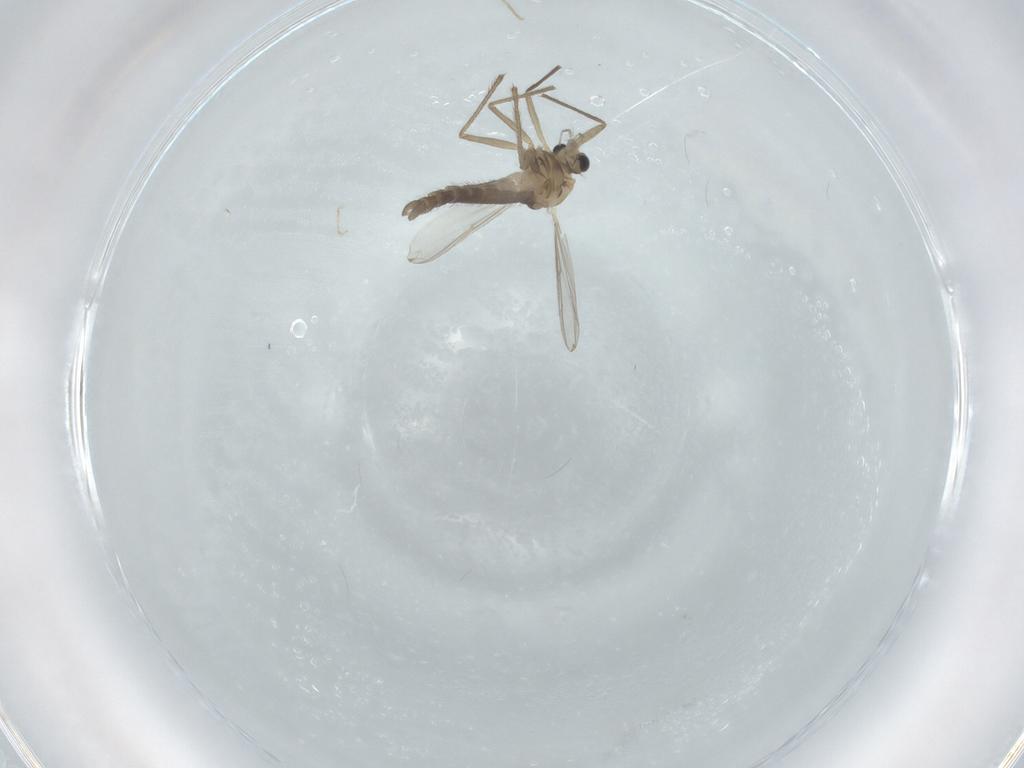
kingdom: Animalia
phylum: Arthropoda
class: Insecta
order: Diptera
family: Chironomidae
